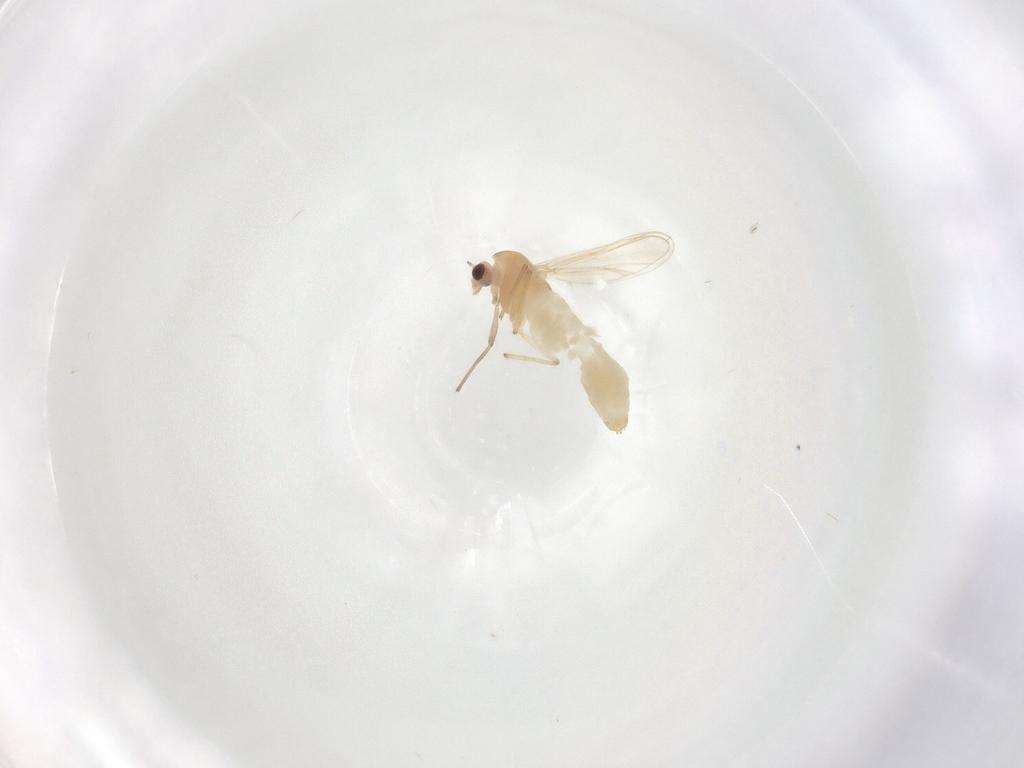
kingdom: Animalia
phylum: Arthropoda
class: Insecta
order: Diptera
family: Chironomidae
